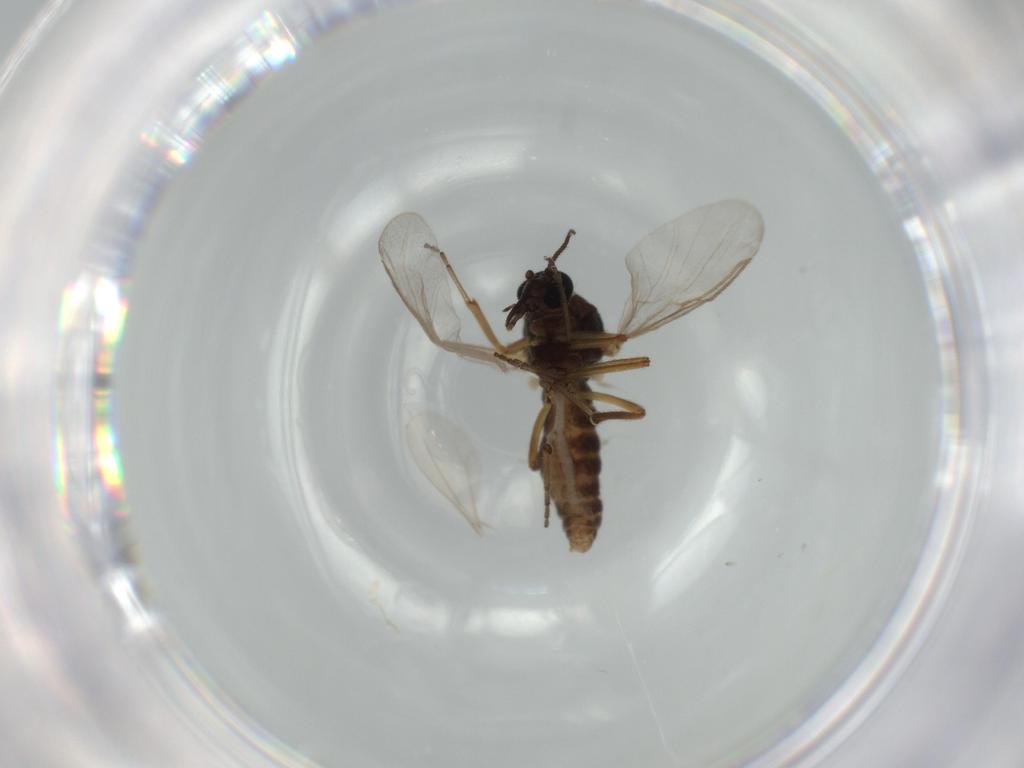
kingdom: Animalia
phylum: Arthropoda
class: Insecta
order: Diptera
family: Ceratopogonidae
